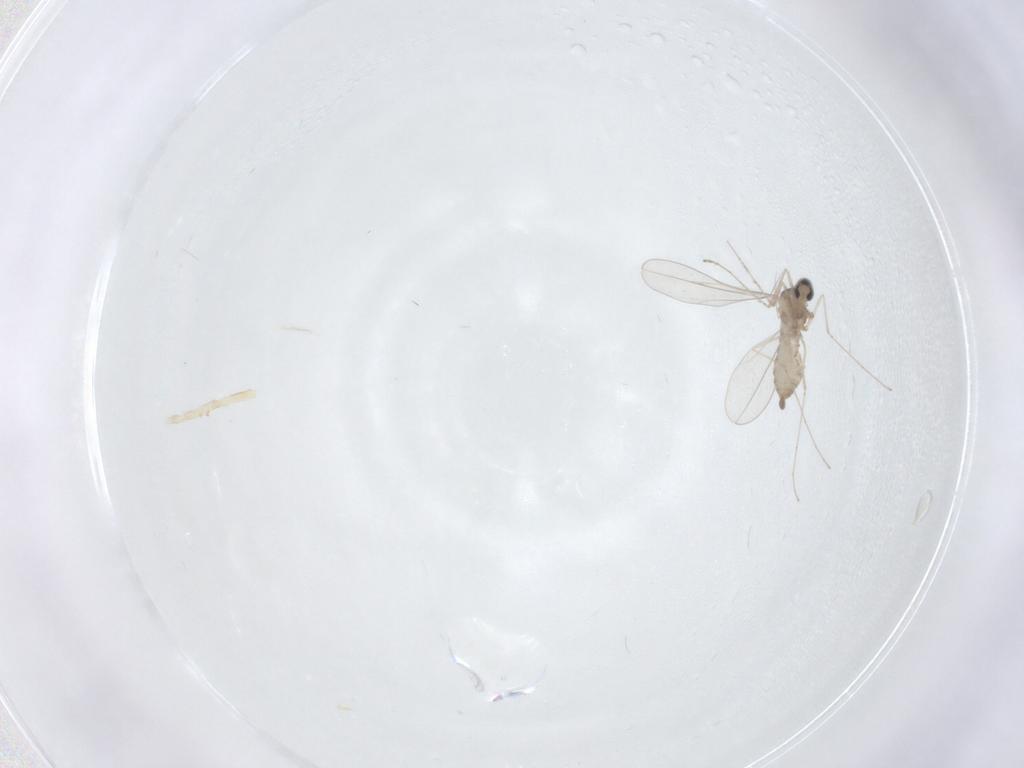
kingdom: Animalia
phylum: Arthropoda
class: Insecta
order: Diptera
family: Cecidomyiidae
